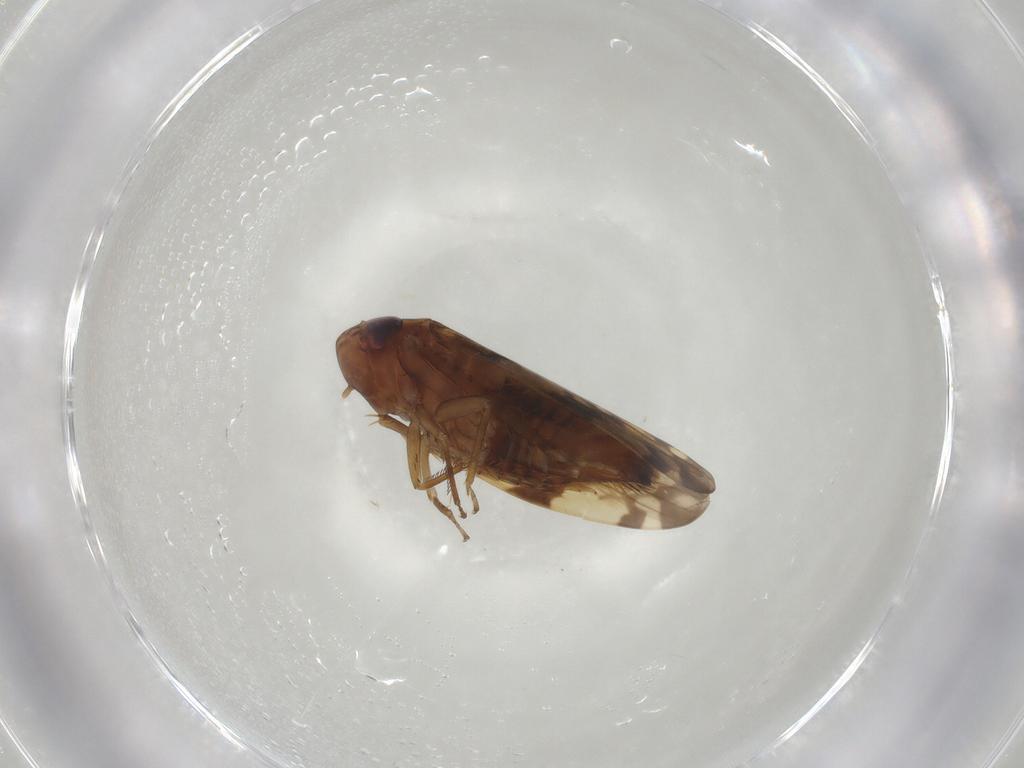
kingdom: Animalia
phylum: Arthropoda
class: Insecta
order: Hemiptera
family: Cicadellidae
